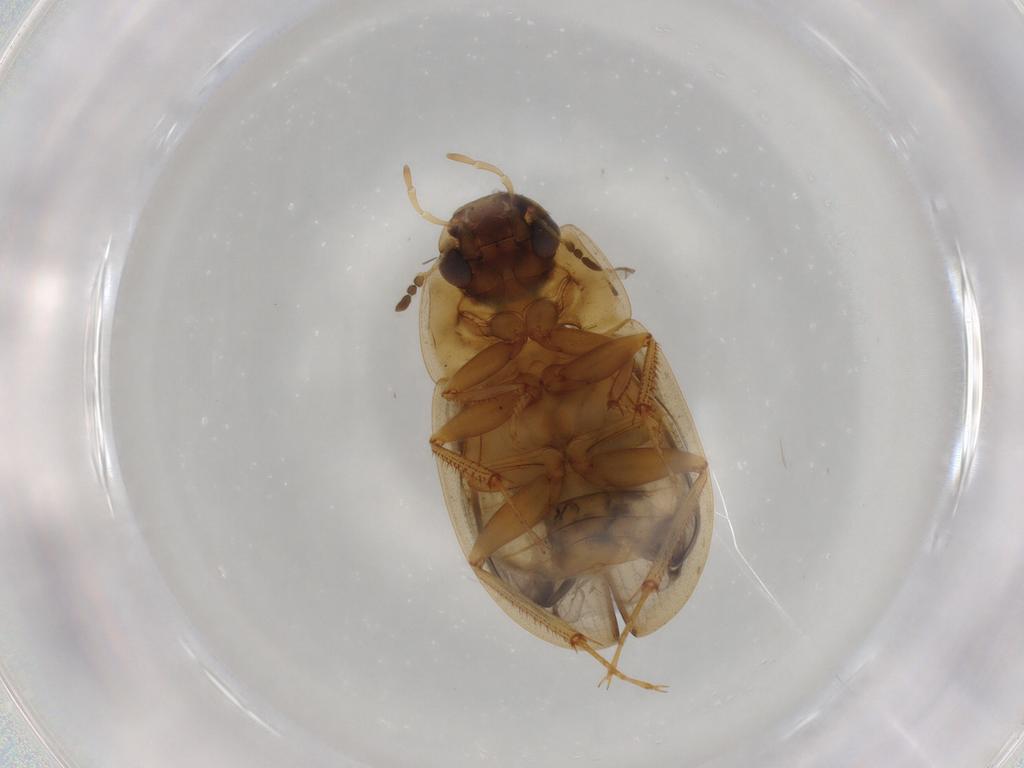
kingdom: Animalia
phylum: Arthropoda
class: Insecta
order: Coleoptera
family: Hydrophilidae
